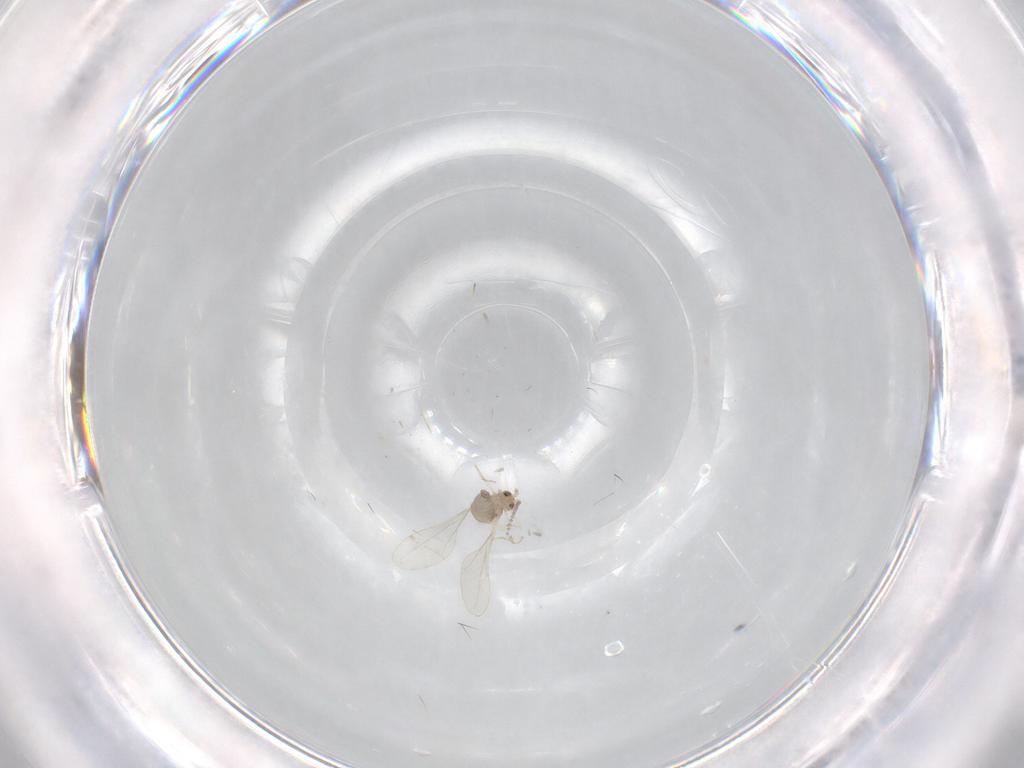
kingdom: Animalia
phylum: Arthropoda
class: Insecta
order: Diptera
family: Sciaridae
